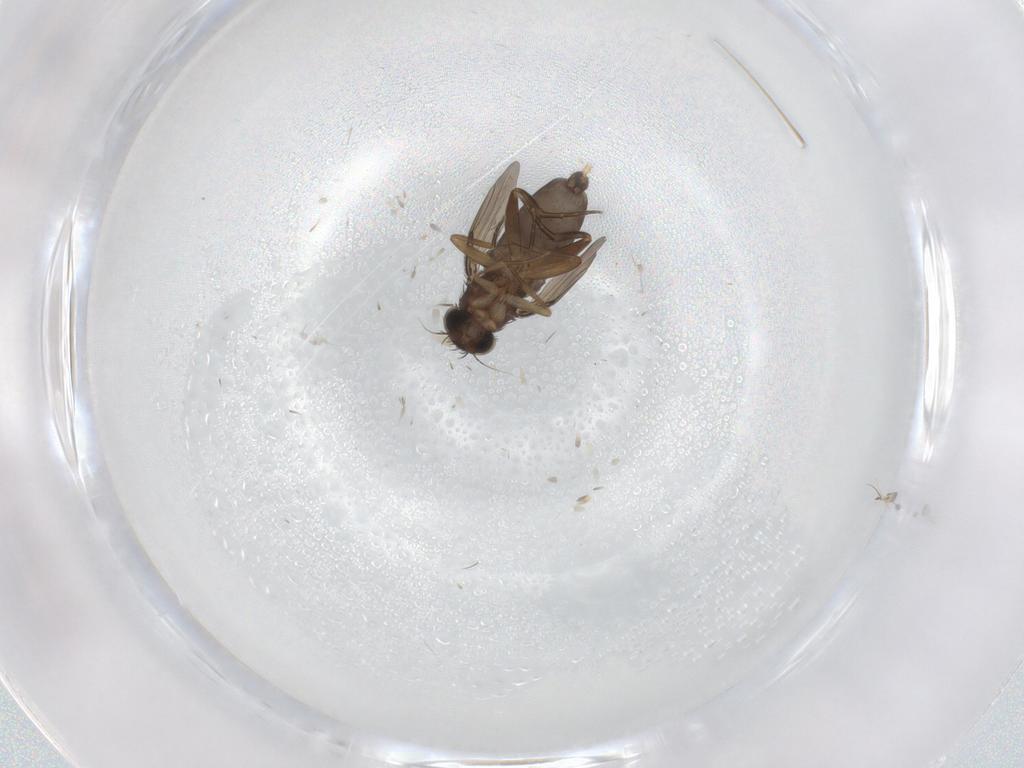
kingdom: Animalia
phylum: Arthropoda
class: Insecta
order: Diptera
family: Phoridae
